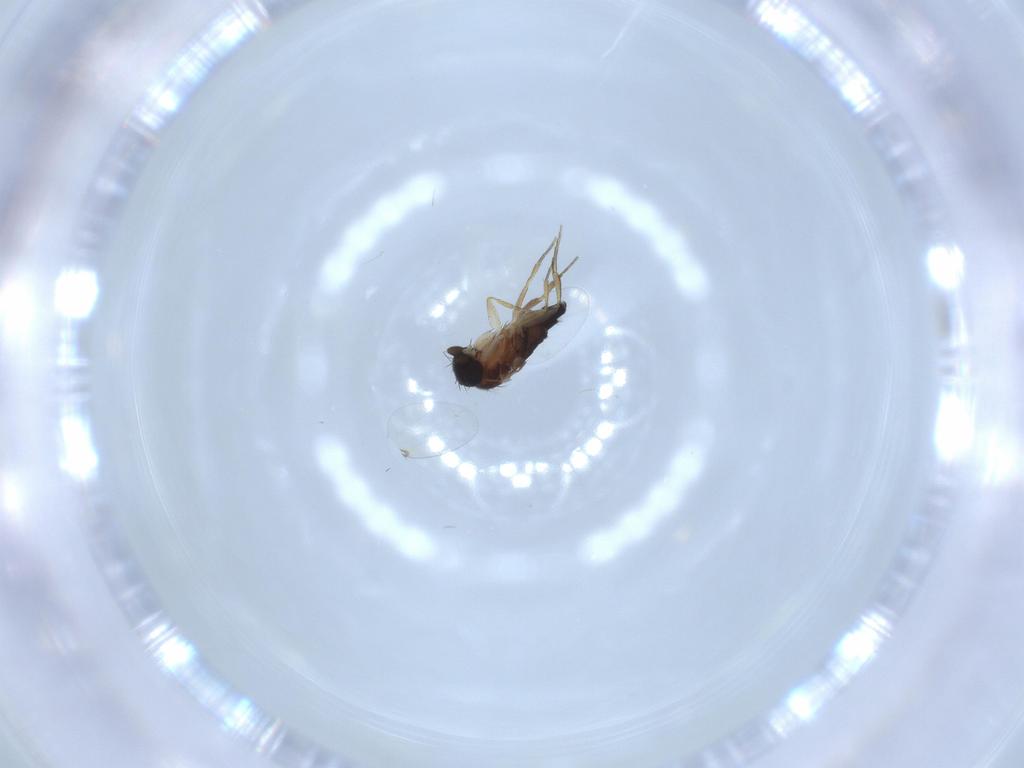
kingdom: Animalia
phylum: Arthropoda
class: Insecta
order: Diptera
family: Phoridae
